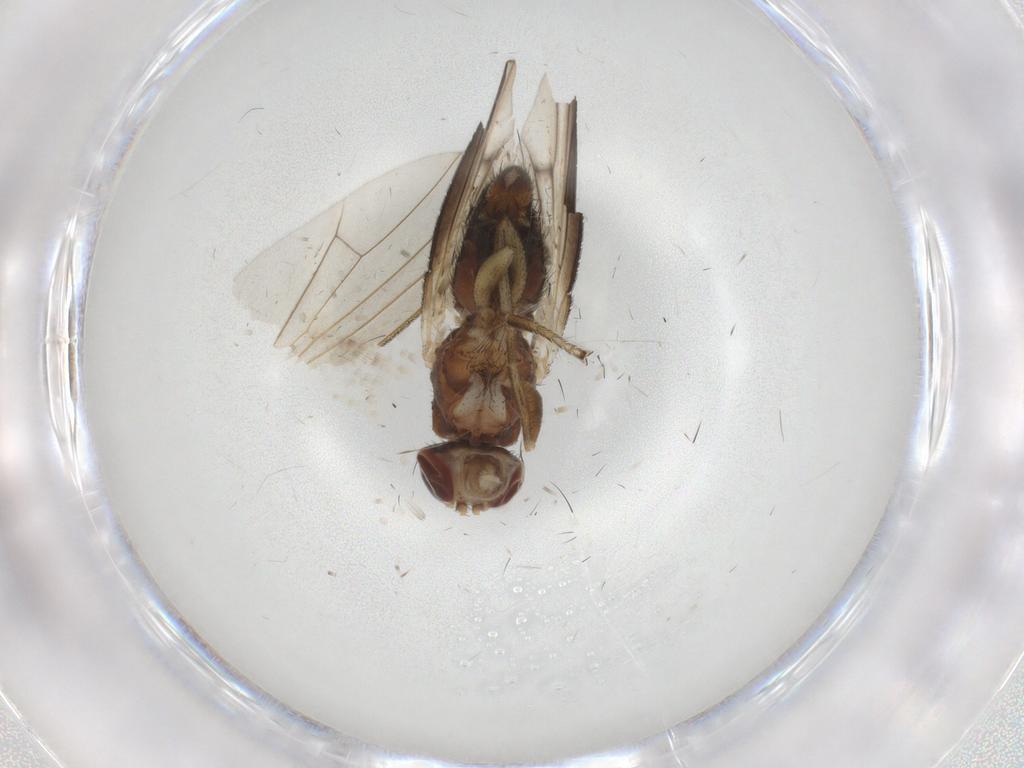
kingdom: Animalia
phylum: Arthropoda
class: Insecta
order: Diptera
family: Heleomyzidae
